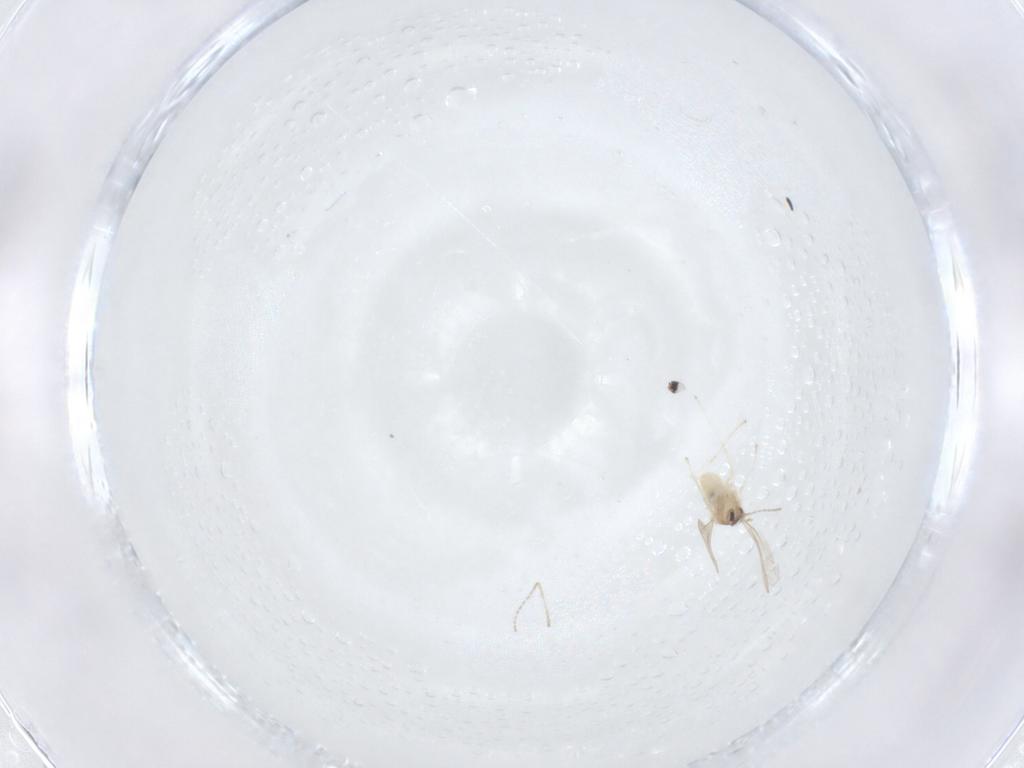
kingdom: Animalia
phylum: Arthropoda
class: Insecta
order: Diptera
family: Cecidomyiidae
